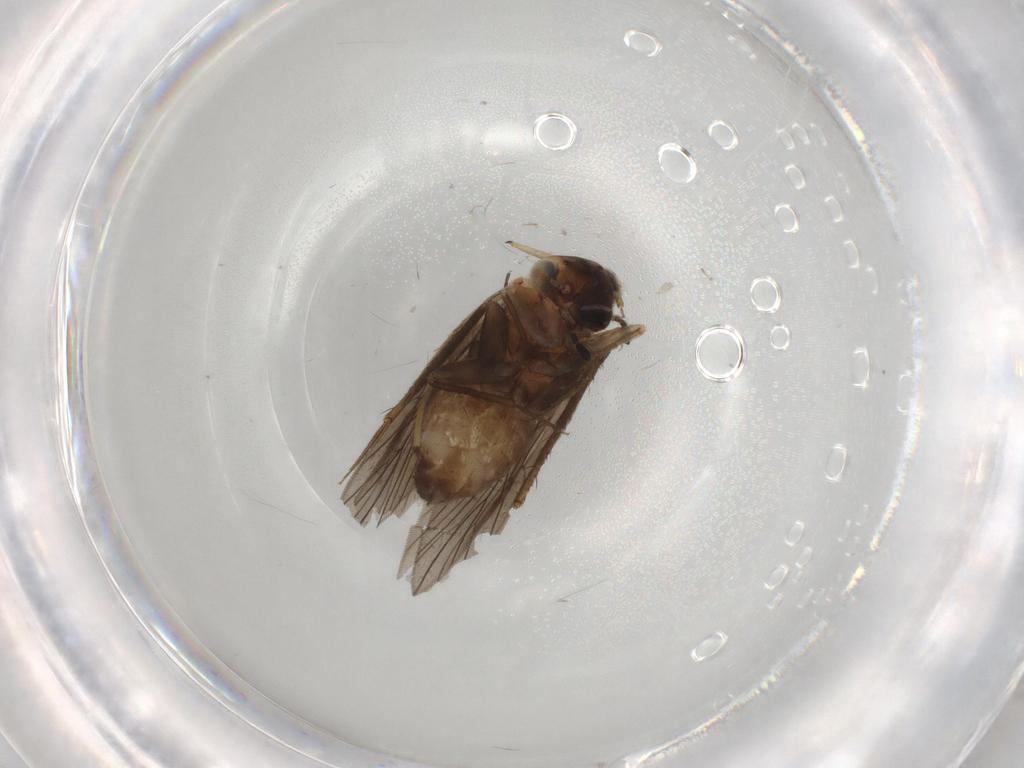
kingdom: Animalia
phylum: Arthropoda
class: Insecta
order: Psocodea
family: Lepidopsocidae
